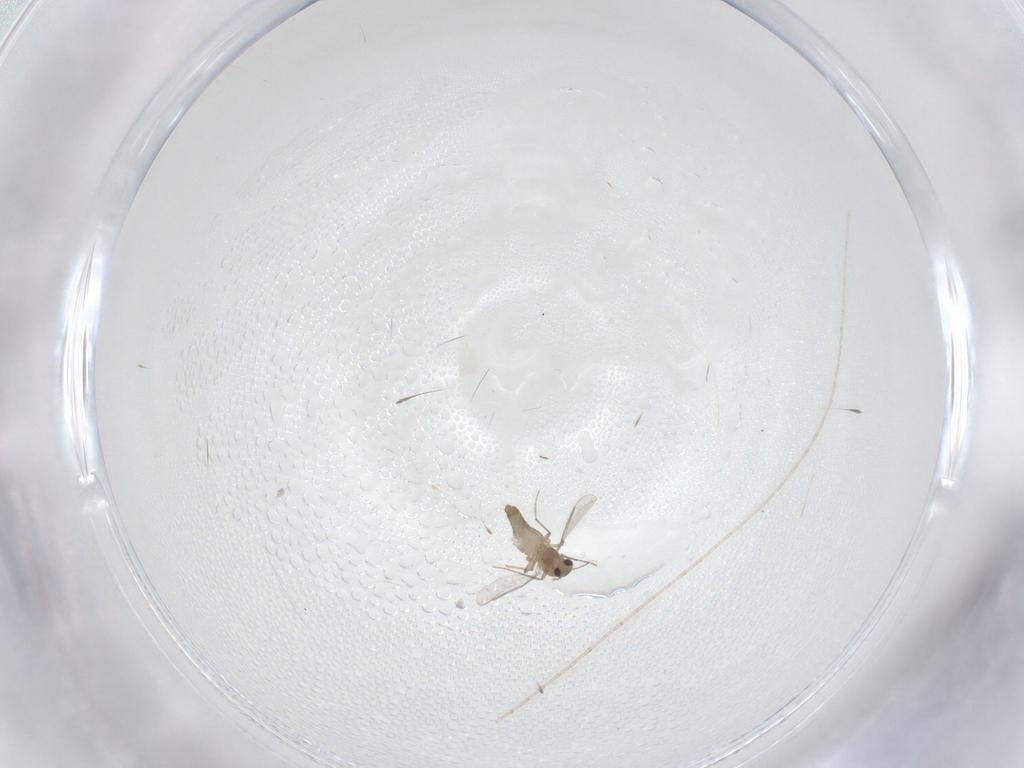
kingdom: Animalia
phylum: Arthropoda
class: Insecta
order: Diptera
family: Chironomidae
